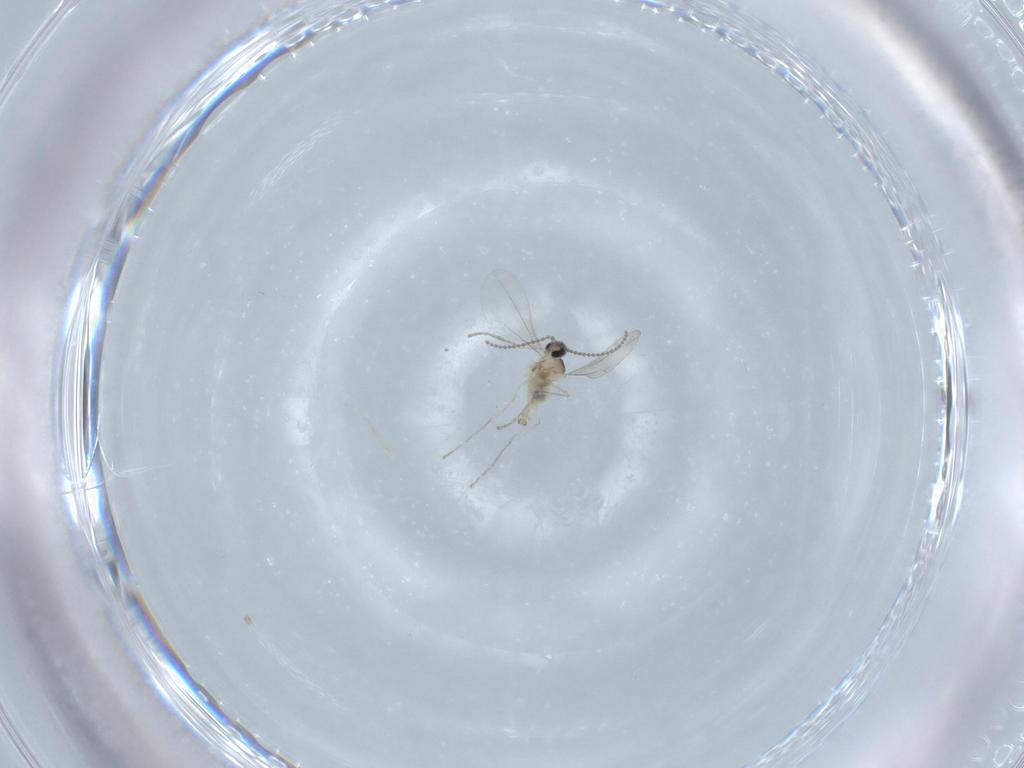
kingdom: Animalia
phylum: Arthropoda
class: Insecta
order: Diptera
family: Cecidomyiidae
